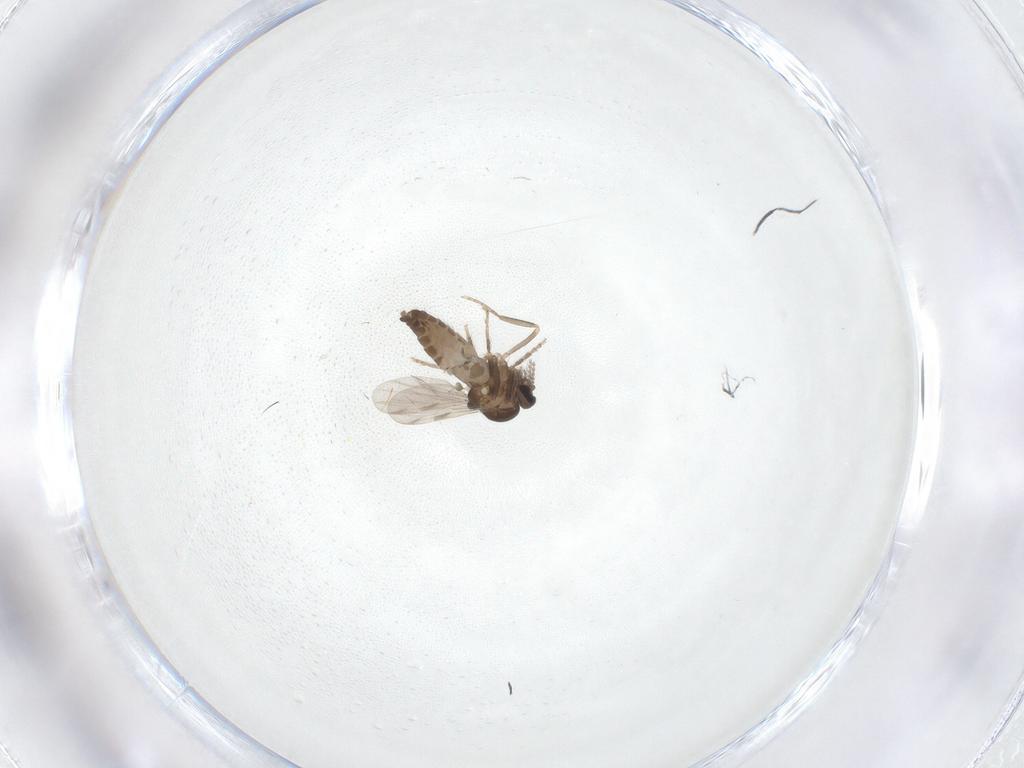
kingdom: Animalia
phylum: Arthropoda
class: Insecta
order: Diptera
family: Ceratopogonidae
